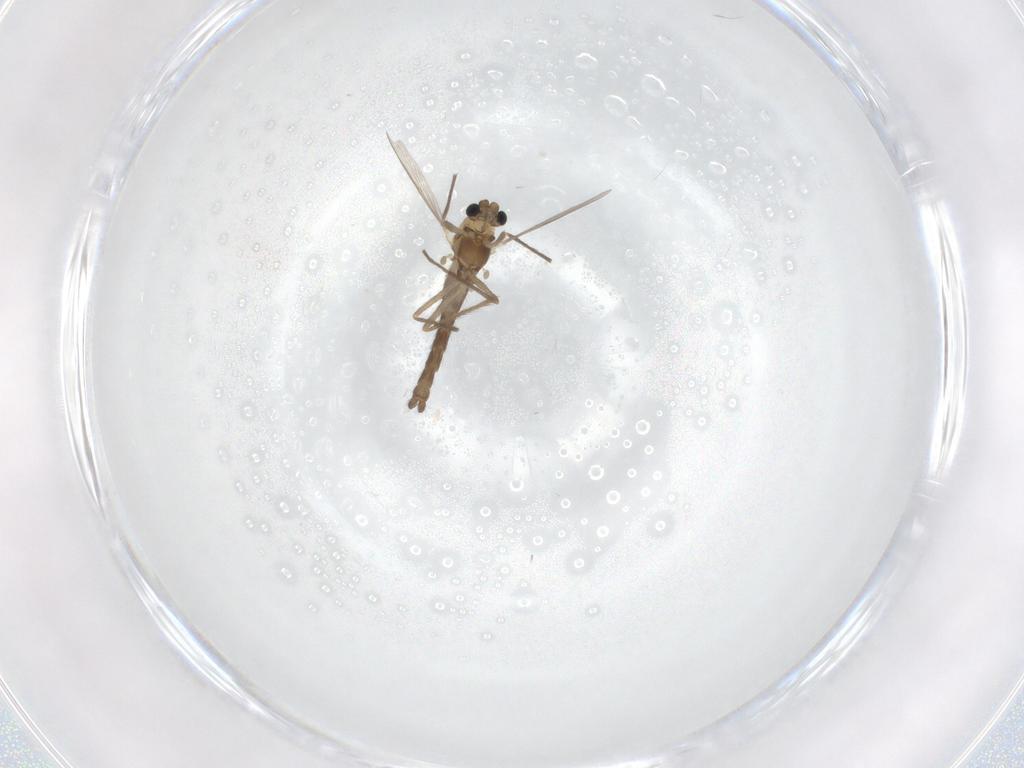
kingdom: Animalia
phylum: Arthropoda
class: Insecta
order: Diptera
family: Chironomidae
